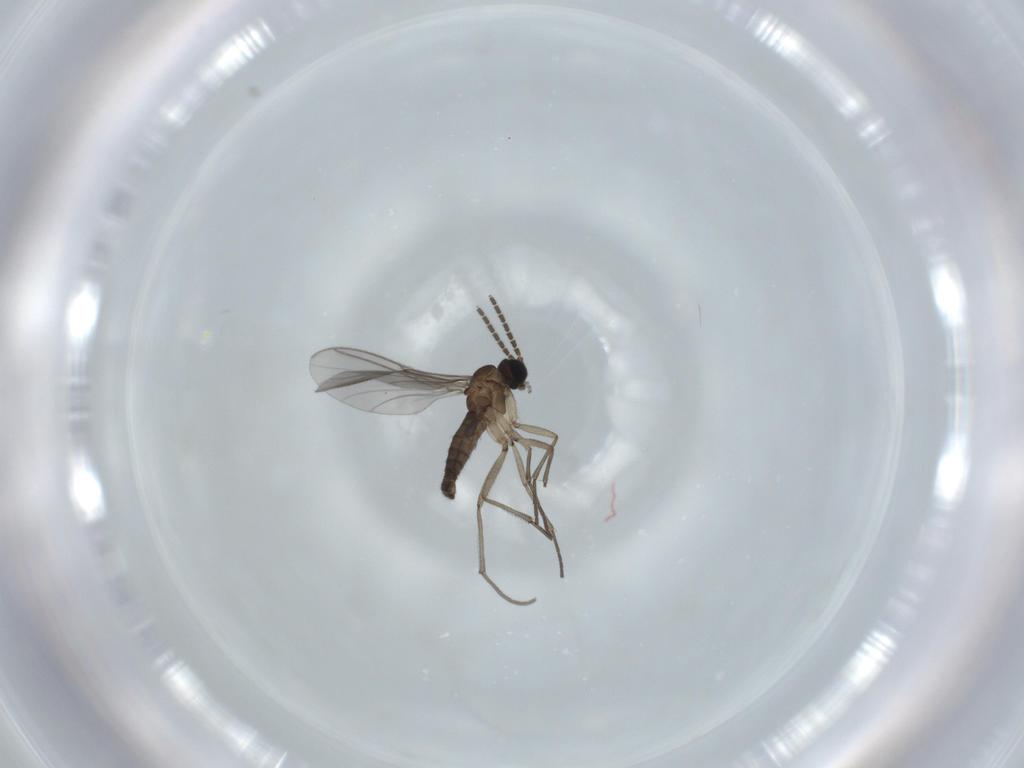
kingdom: Animalia
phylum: Arthropoda
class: Insecta
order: Diptera
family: Sciaridae
